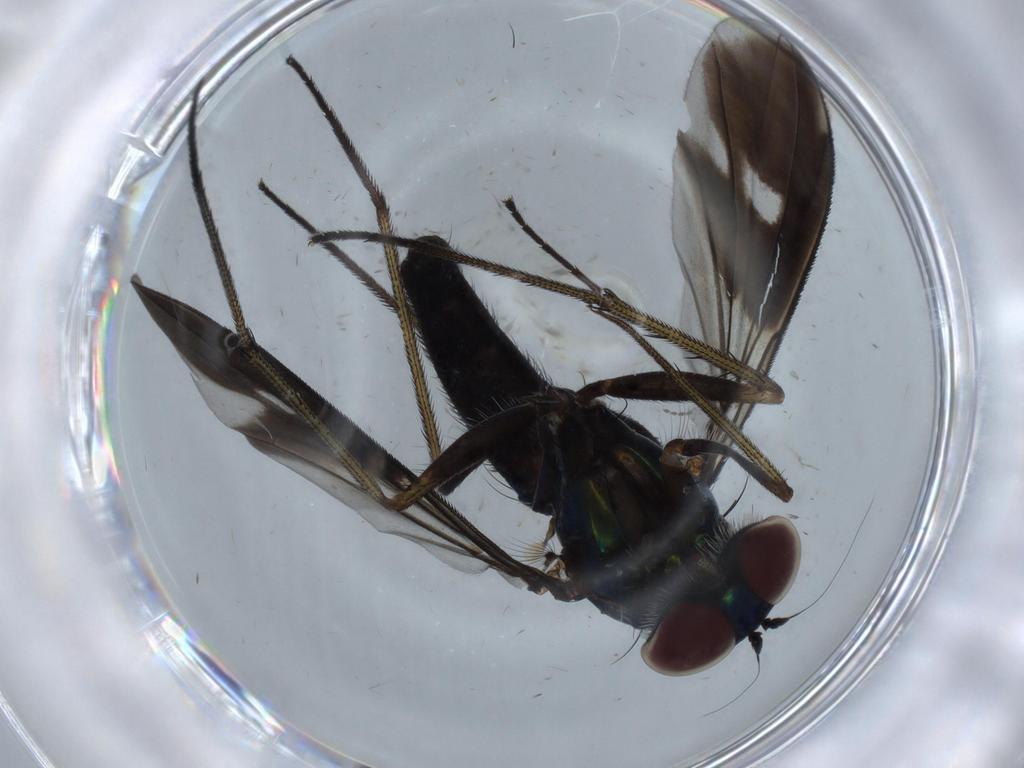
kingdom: Animalia
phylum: Arthropoda
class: Insecta
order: Diptera
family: Dolichopodidae
